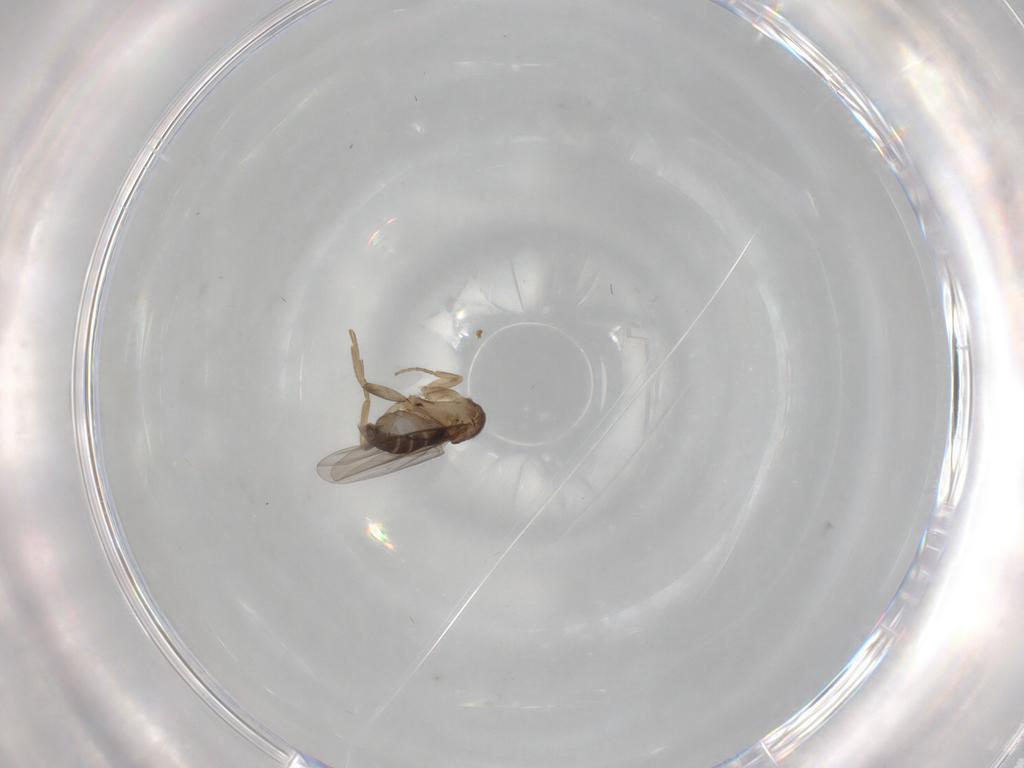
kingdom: Animalia
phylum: Arthropoda
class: Insecta
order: Diptera
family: Phoridae
